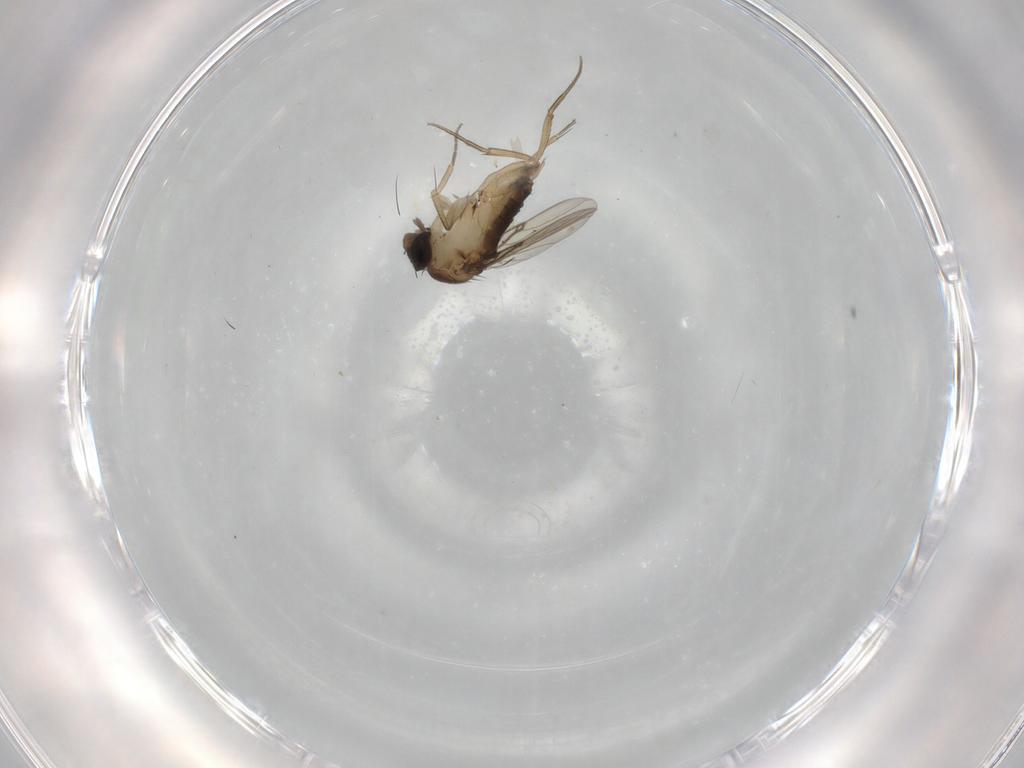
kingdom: Animalia
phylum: Arthropoda
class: Insecta
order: Diptera
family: Phoridae
